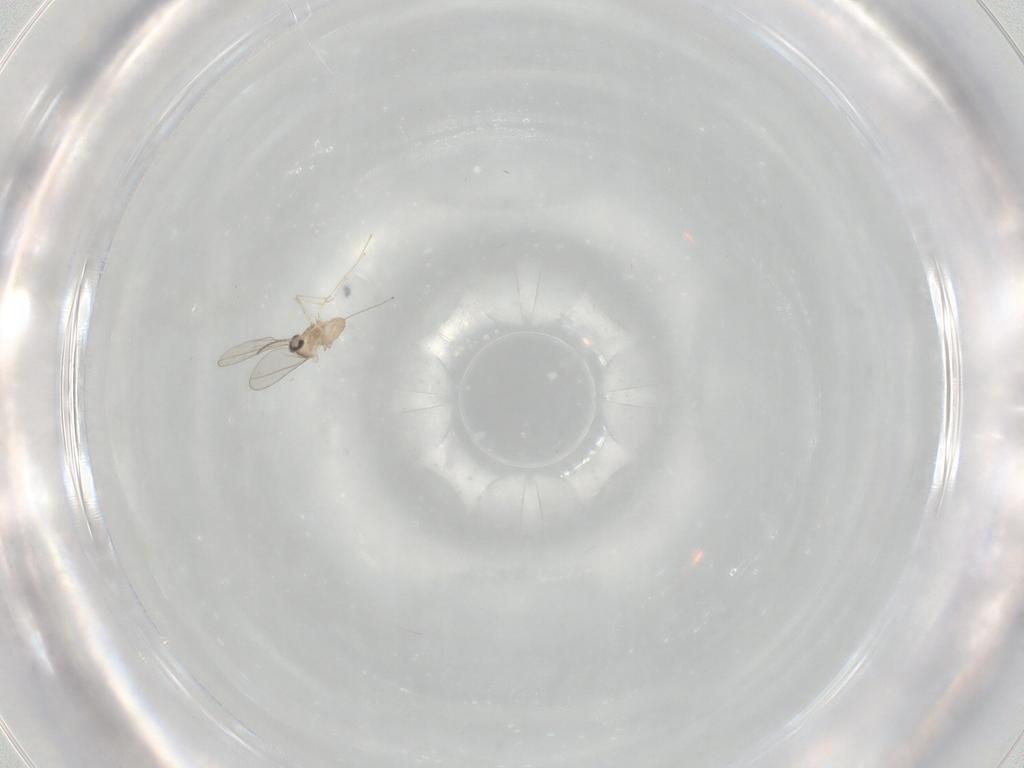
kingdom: Animalia
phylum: Arthropoda
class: Insecta
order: Diptera
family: Cecidomyiidae
